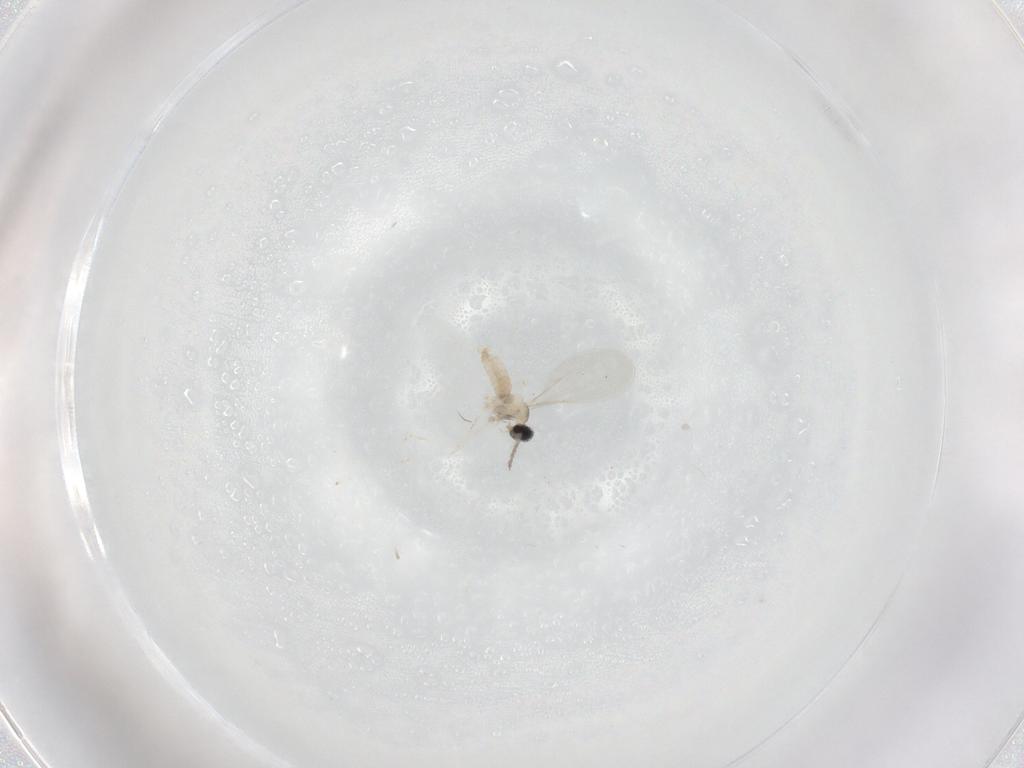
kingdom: Animalia
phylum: Arthropoda
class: Insecta
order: Diptera
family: Cecidomyiidae
